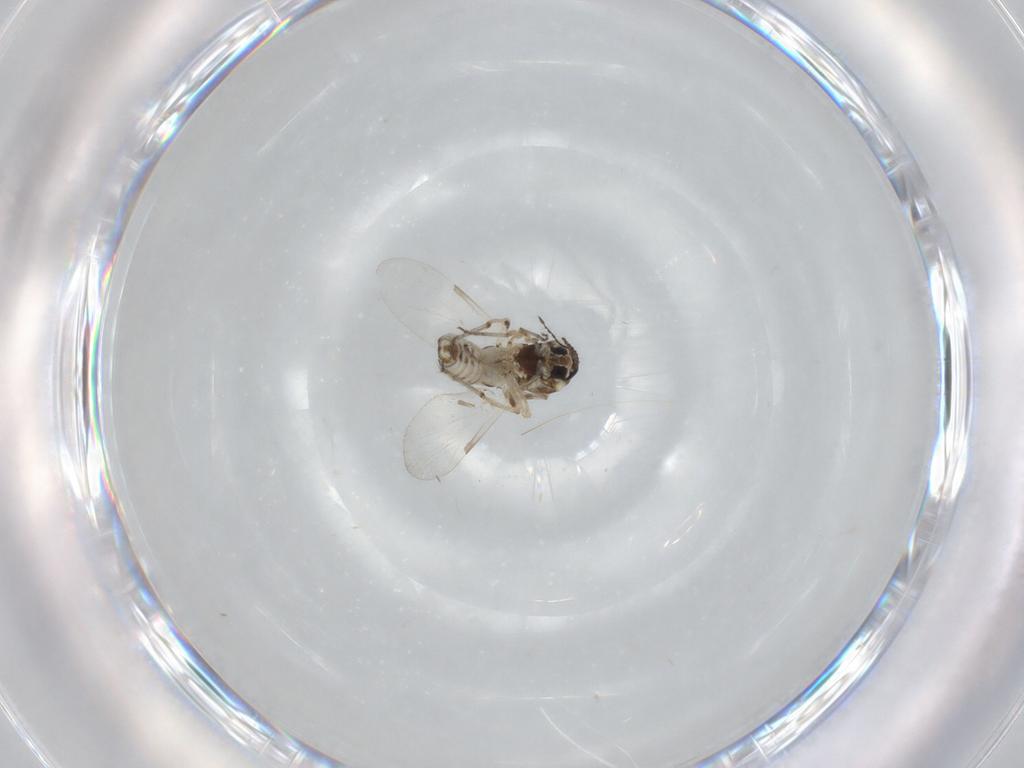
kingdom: Animalia
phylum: Arthropoda
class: Insecta
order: Diptera
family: Ceratopogonidae
